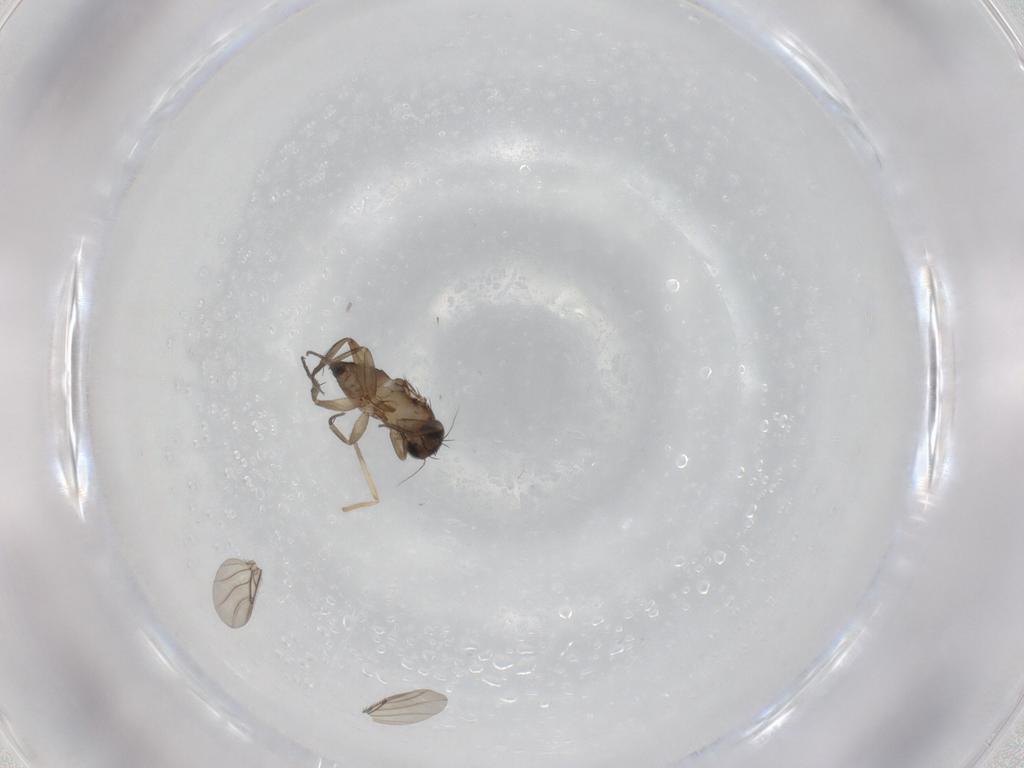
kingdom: Animalia
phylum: Arthropoda
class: Insecta
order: Diptera
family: Phoridae
